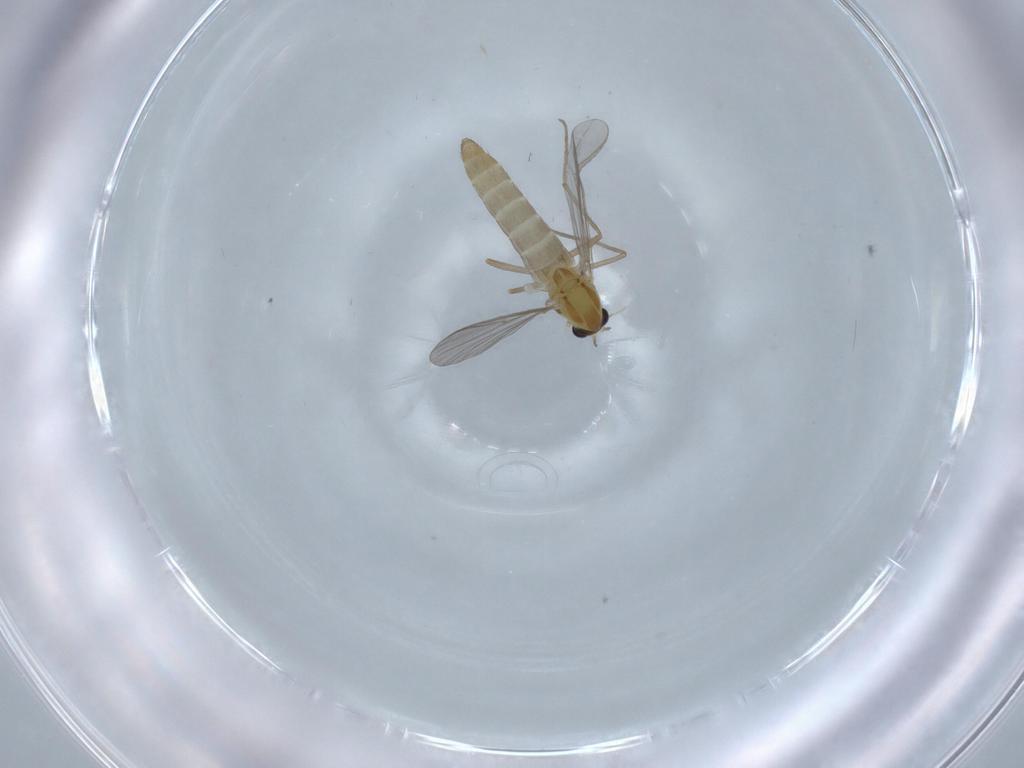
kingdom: Animalia
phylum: Arthropoda
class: Insecta
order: Diptera
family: Chironomidae
